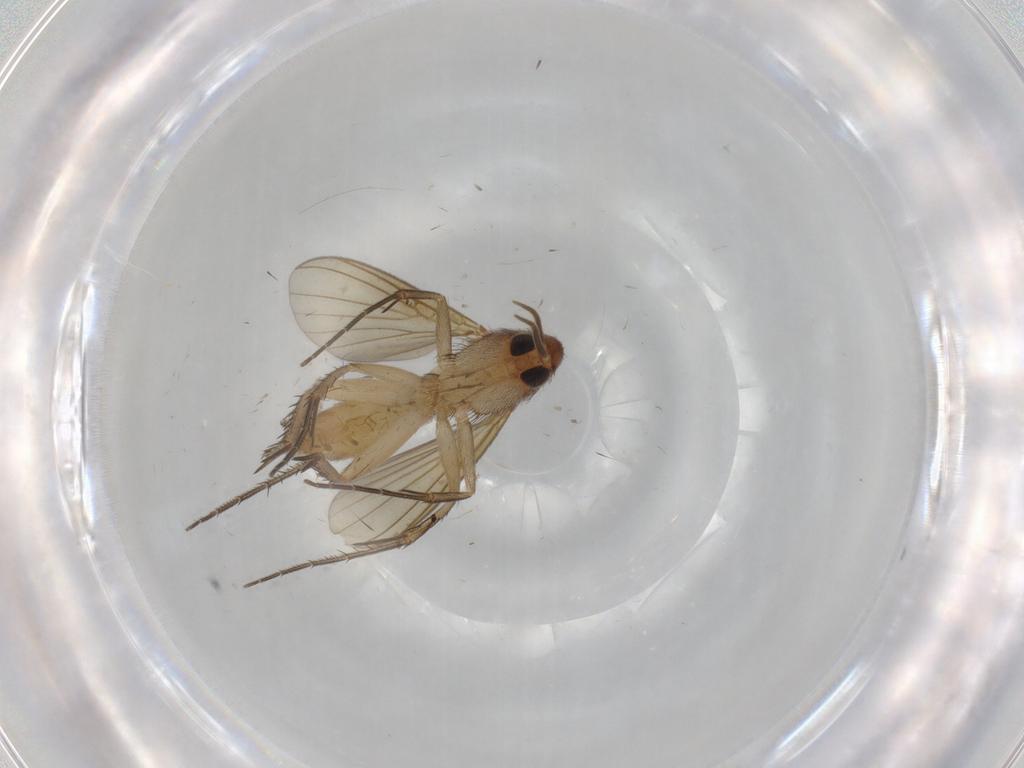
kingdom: Animalia
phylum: Arthropoda
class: Insecta
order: Diptera
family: Mycetophilidae
